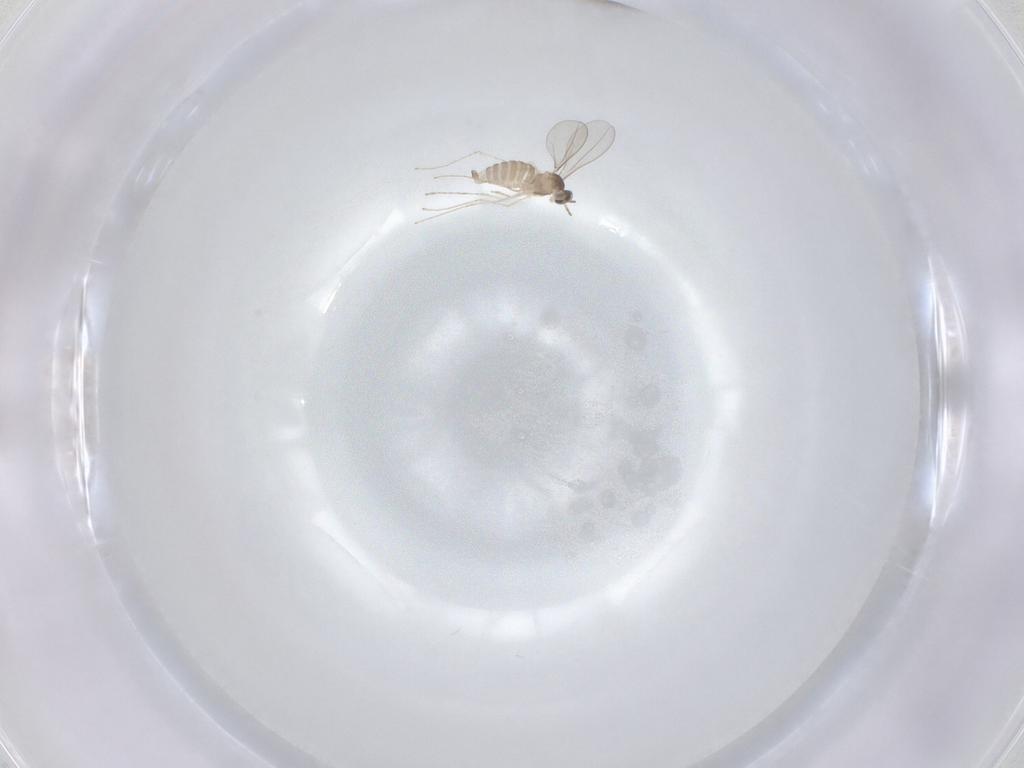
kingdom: Animalia
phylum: Arthropoda
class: Insecta
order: Diptera
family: Cecidomyiidae
